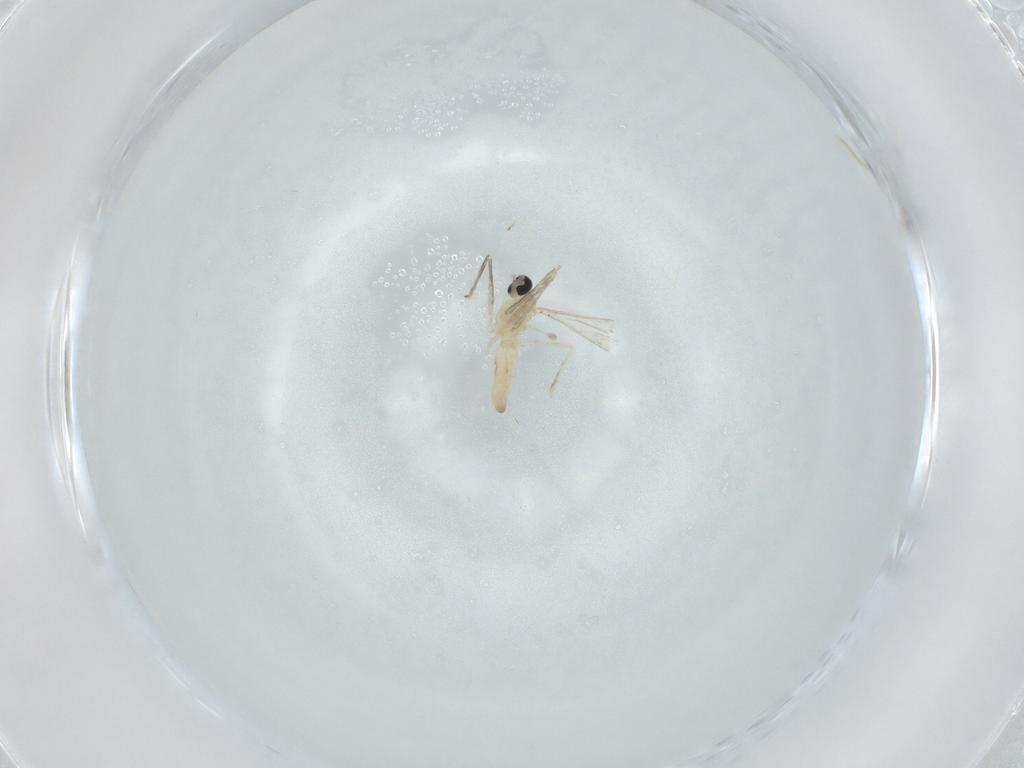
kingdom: Animalia
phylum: Arthropoda
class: Insecta
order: Diptera
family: Cecidomyiidae
